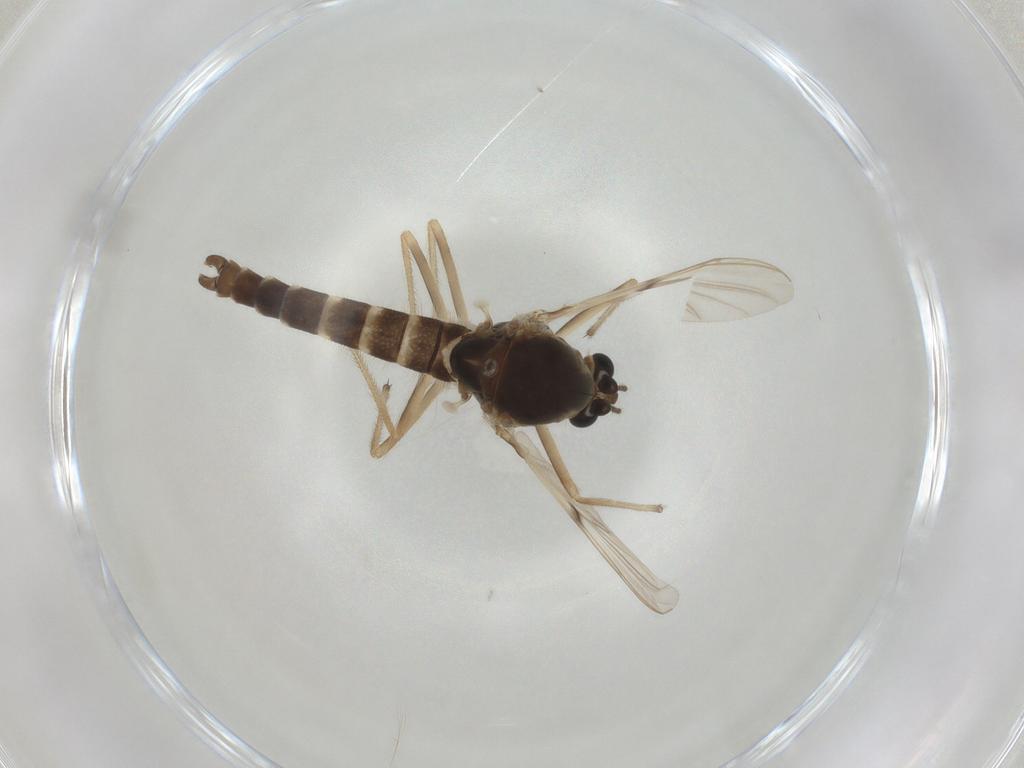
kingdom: Animalia
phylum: Arthropoda
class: Insecta
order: Diptera
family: Chironomidae
